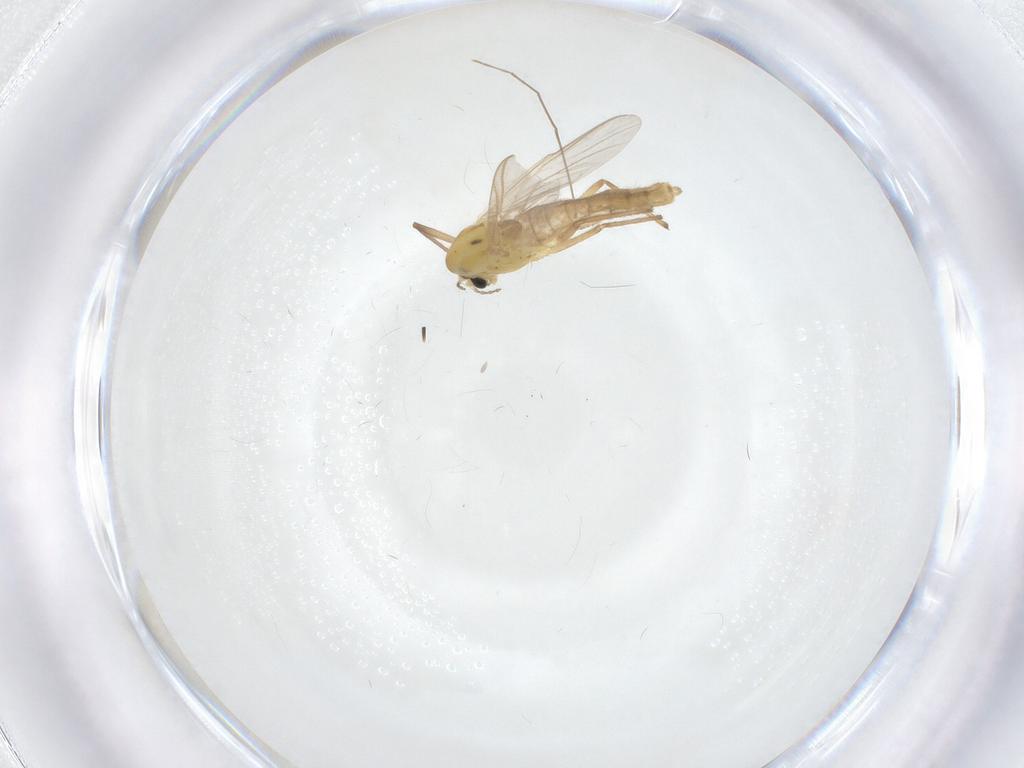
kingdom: Animalia
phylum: Arthropoda
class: Insecta
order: Diptera
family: Chironomidae
